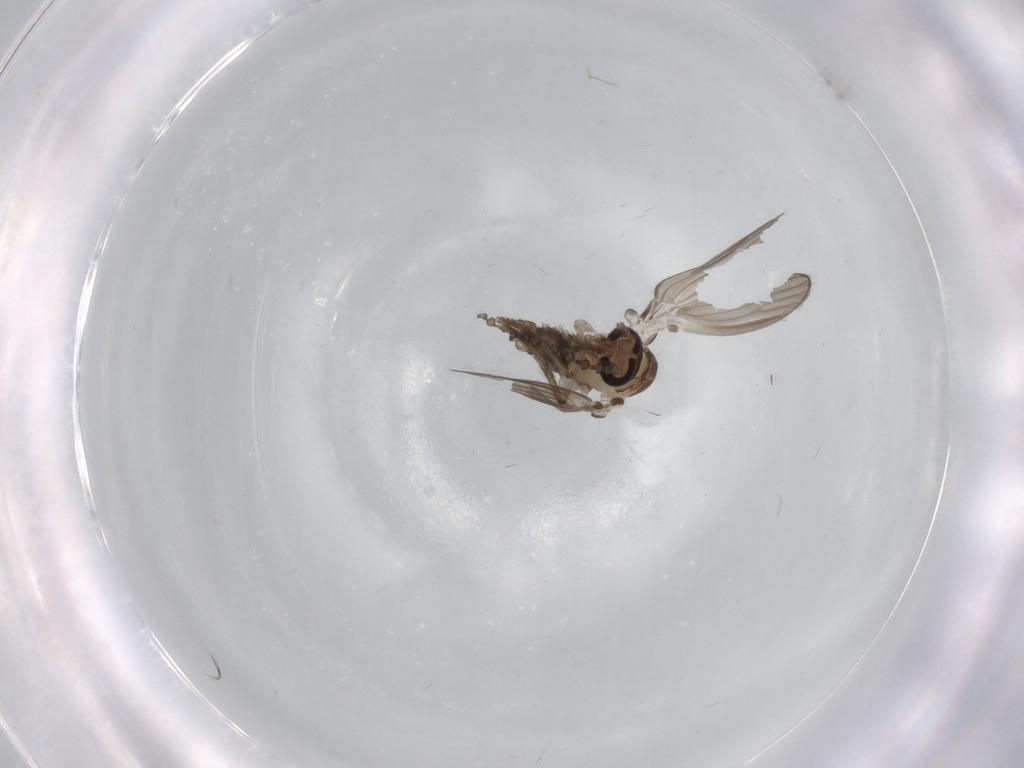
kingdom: Animalia
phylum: Arthropoda
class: Insecta
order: Diptera
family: Psychodidae
